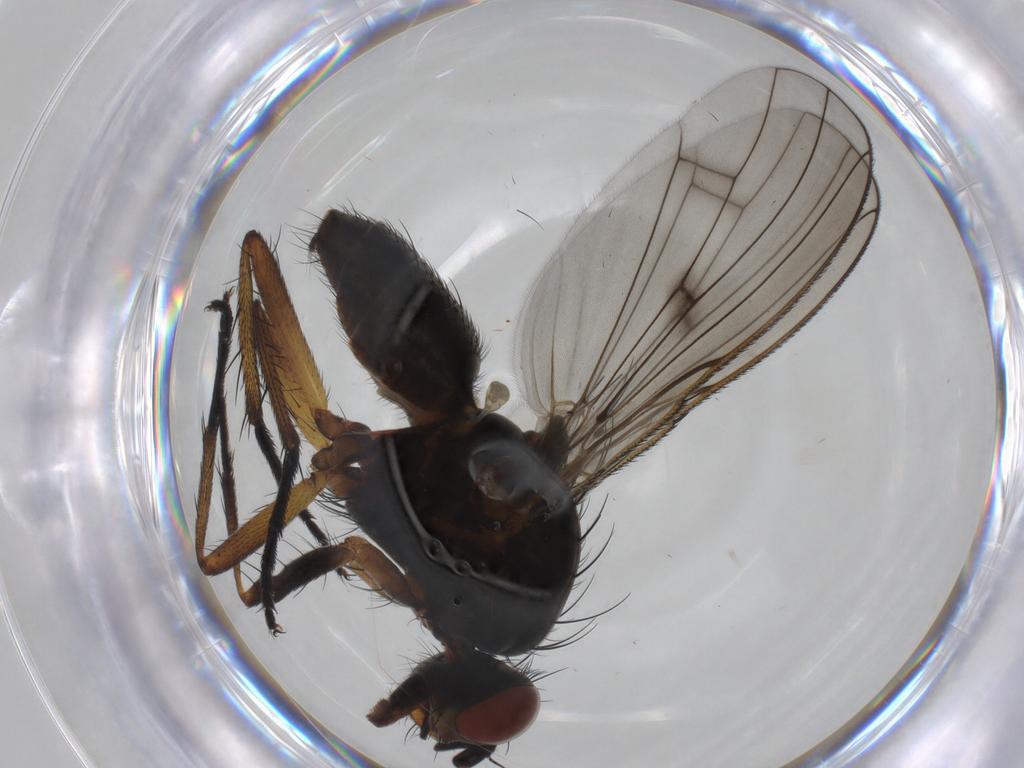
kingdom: Animalia
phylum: Arthropoda
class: Insecta
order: Diptera
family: Anthomyiidae
